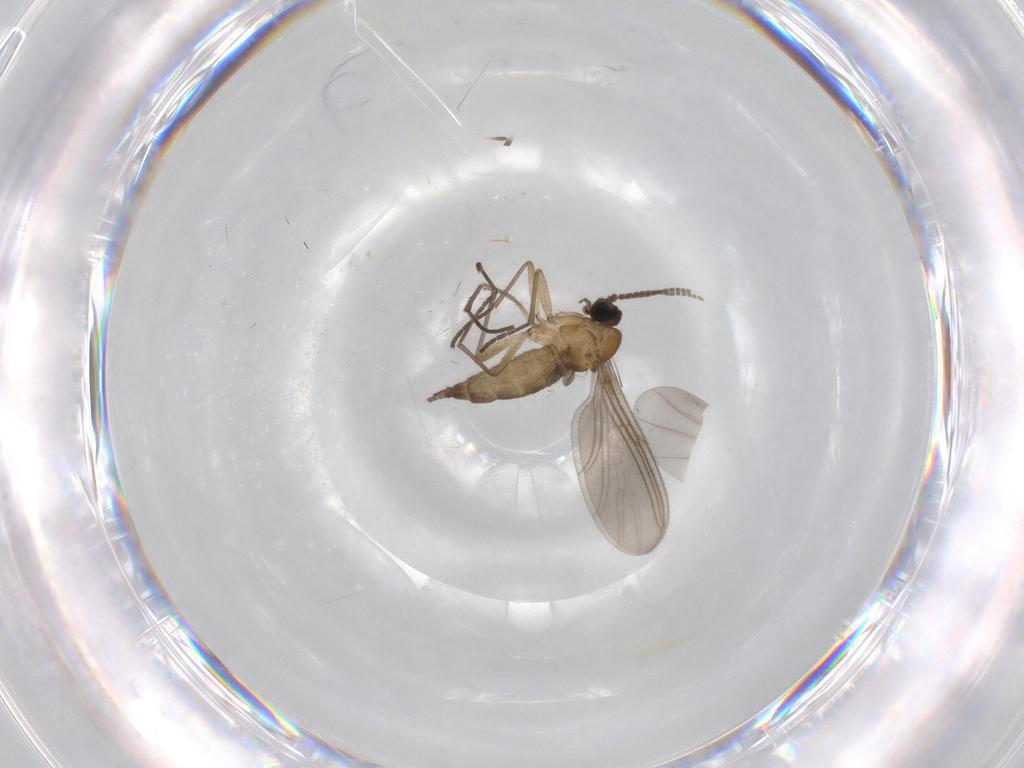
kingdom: Animalia
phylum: Arthropoda
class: Insecta
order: Diptera
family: Sciaridae
